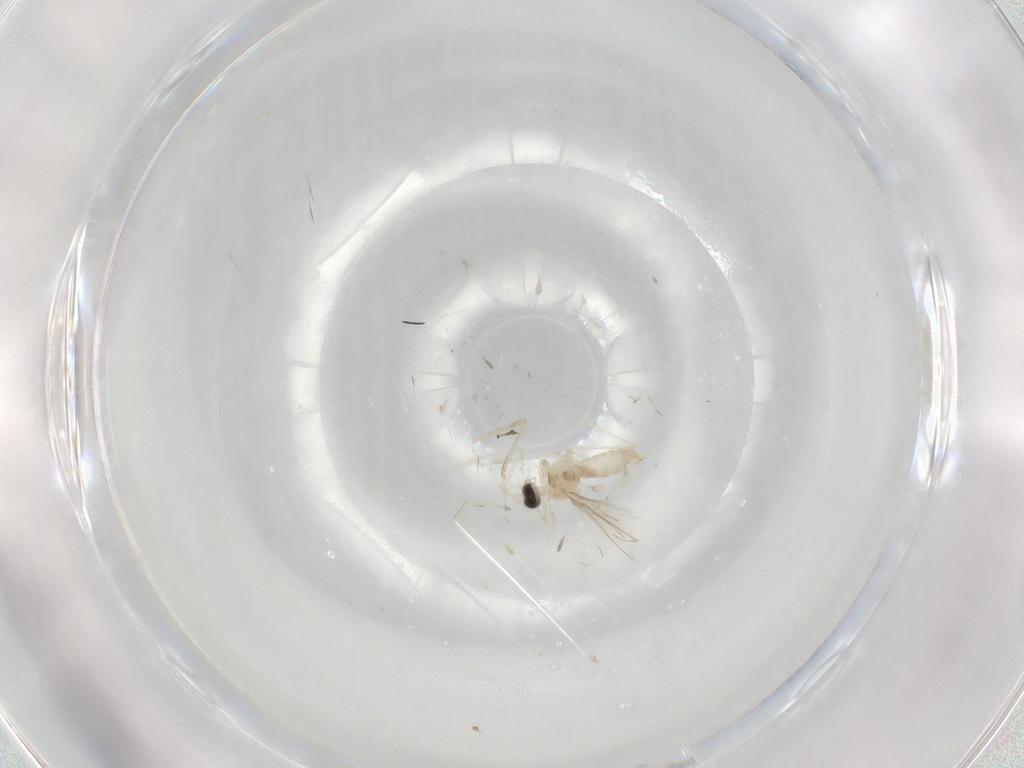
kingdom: Animalia
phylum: Arthropoda
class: Insecta
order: Diptera
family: Cecidomyiidae
